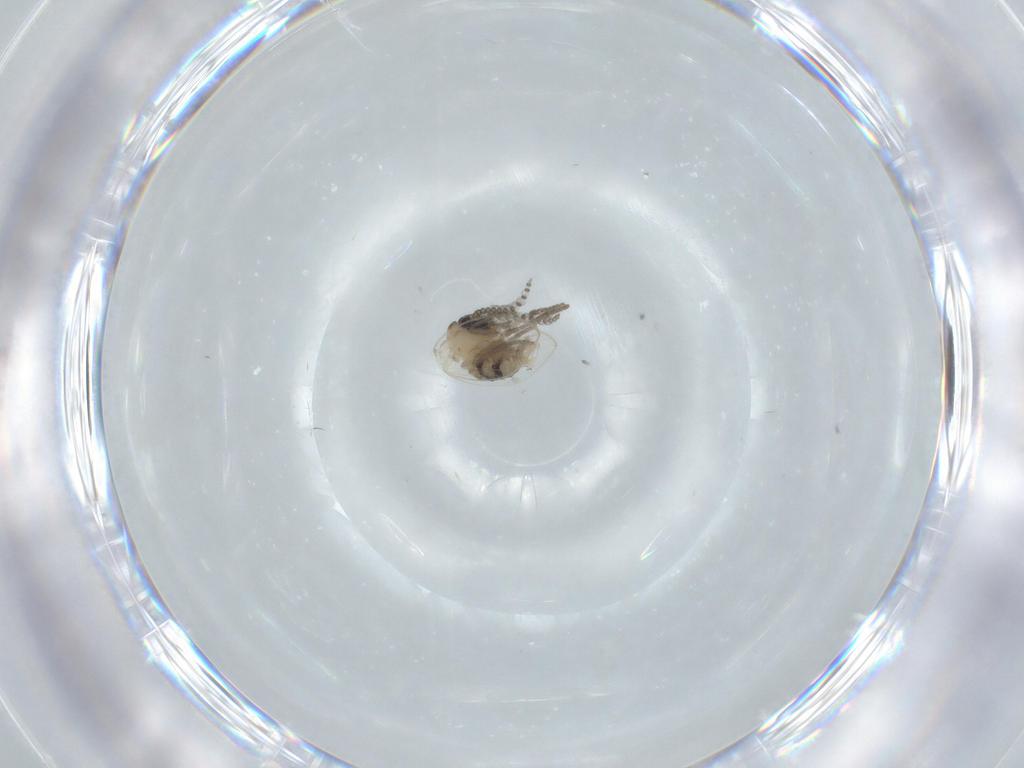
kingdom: Animalia
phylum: Arthropoda
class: Insecta
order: Diptera
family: Psychodidae
